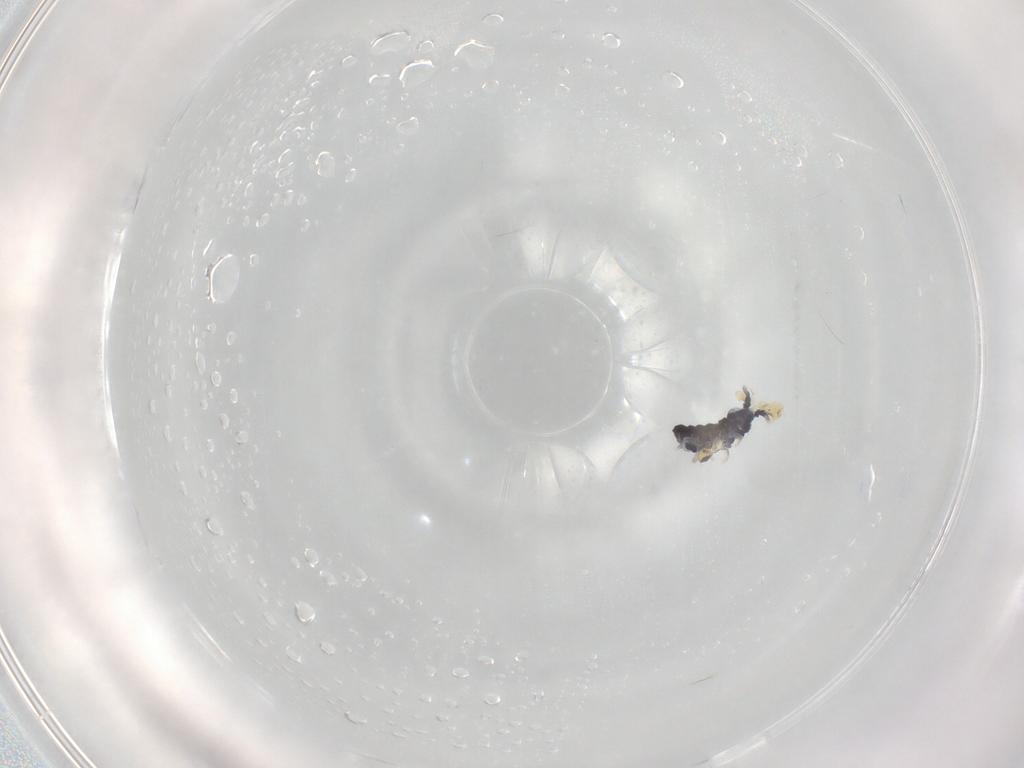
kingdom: Animalia
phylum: Arthropoda
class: Collembola
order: Poduromorpha
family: Neanuridae
